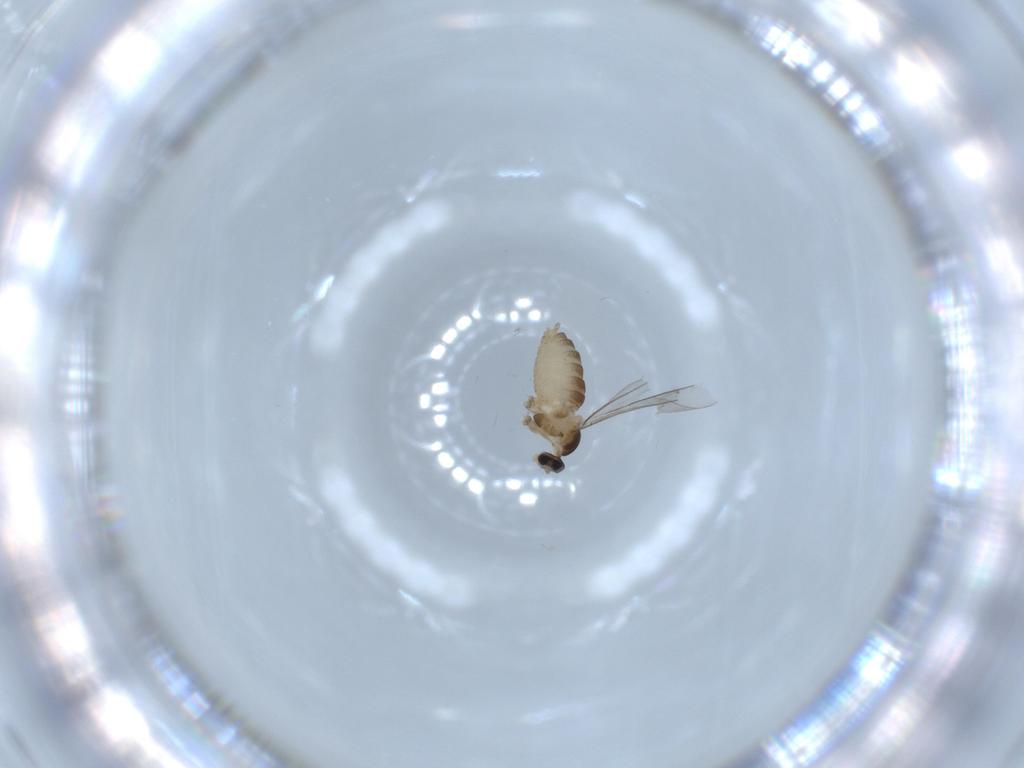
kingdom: Animalia
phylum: Arthropoda
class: Insecta
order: Diptera
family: Cecidomyiidae
